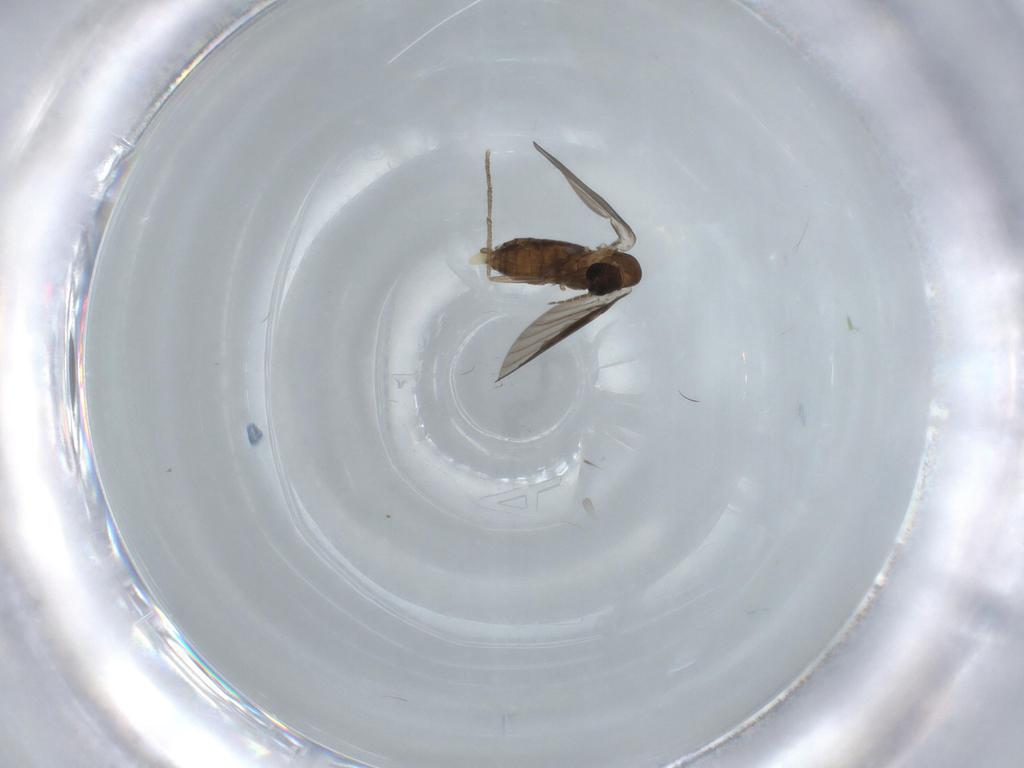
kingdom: Animalia
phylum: Arthropoda
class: Insecta
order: Diptera
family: Psychodidae
